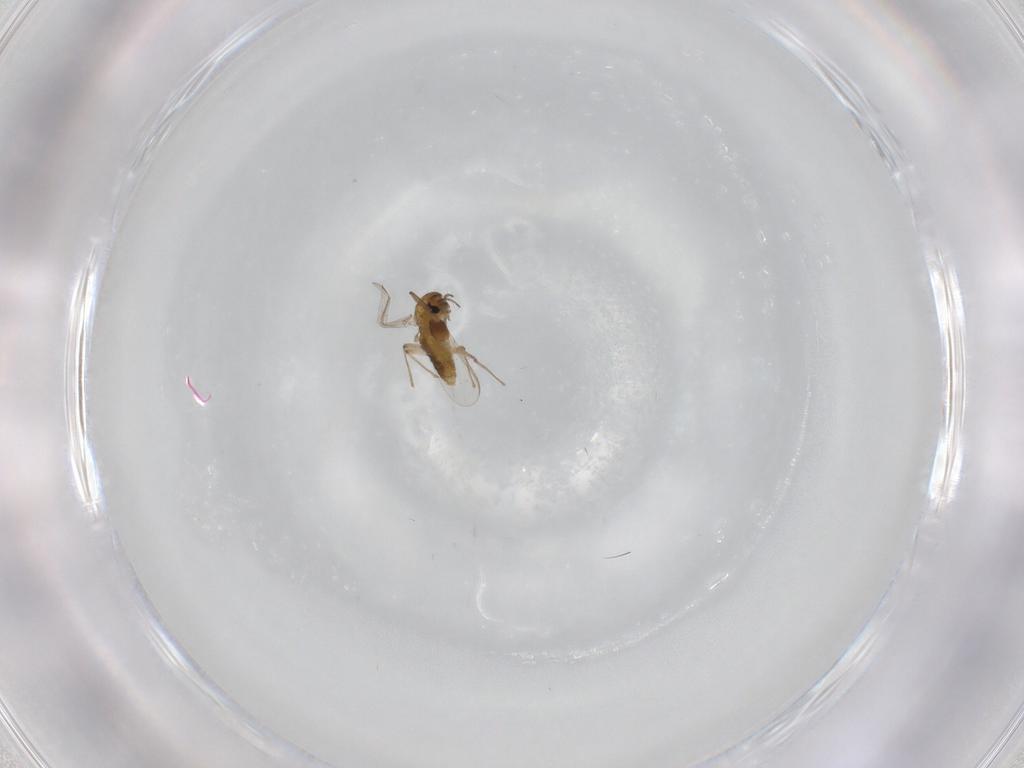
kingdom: Animalia
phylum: Arthropoda
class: Insecta
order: Diptera
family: Chironomidae
